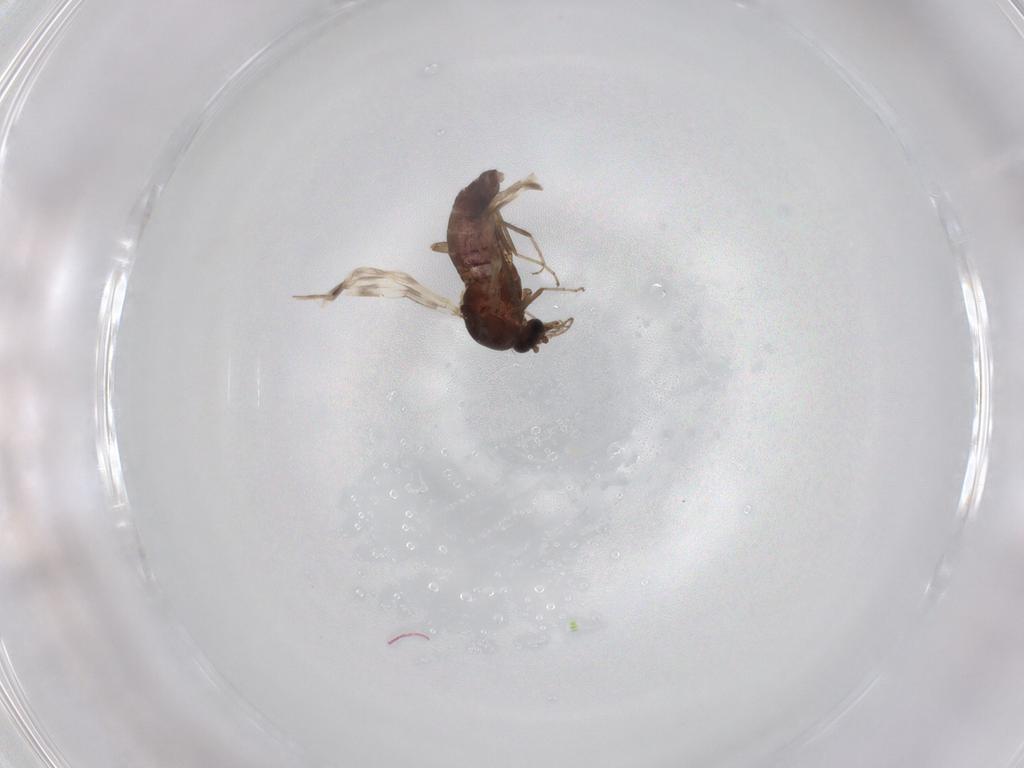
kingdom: Animalia
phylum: Arthropoda
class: Insecta
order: Diptera
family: Ceratopogonidae
